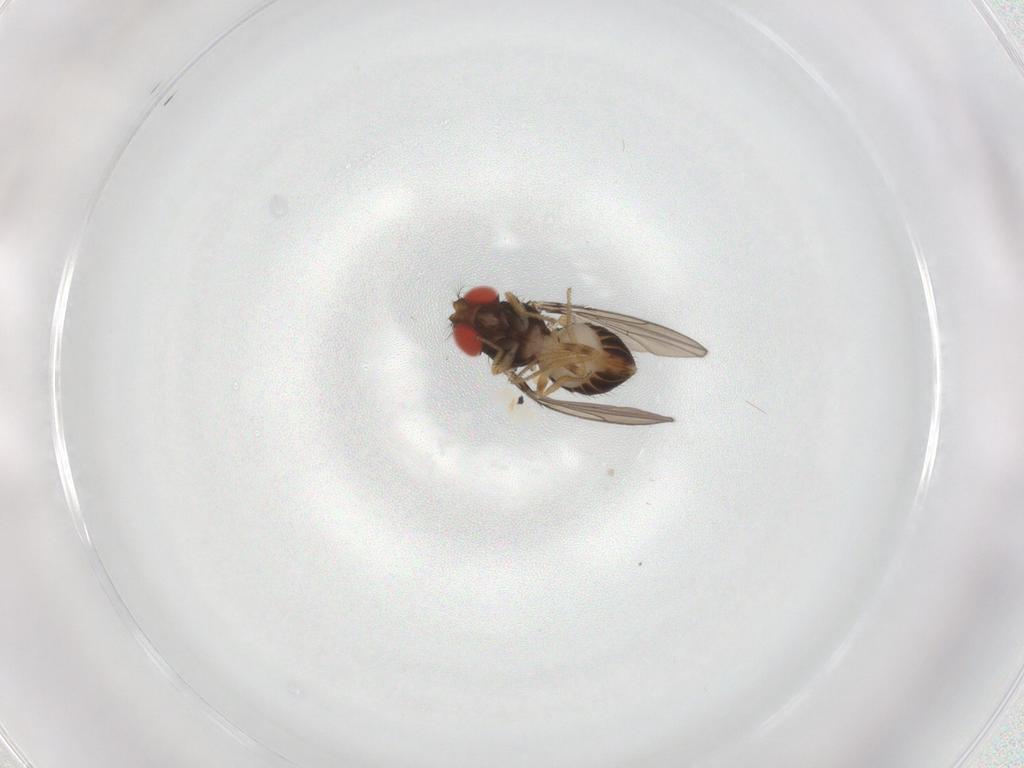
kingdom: Animalia
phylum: Arthropoda
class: Insecta
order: Diptera
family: Drosophilidae
